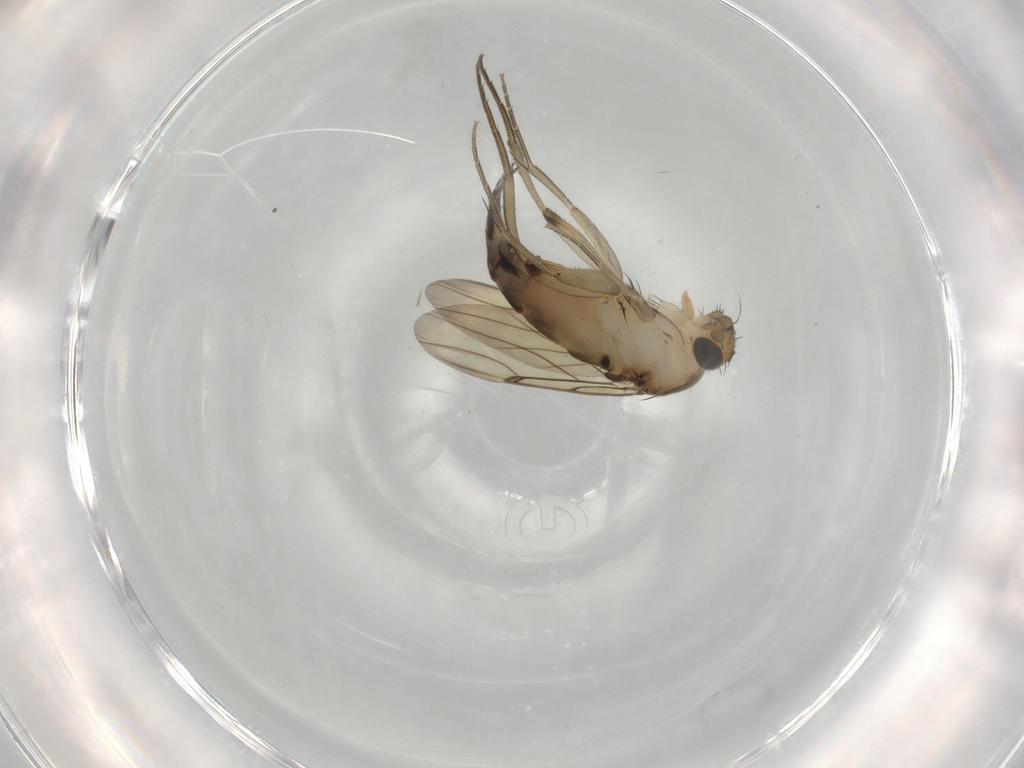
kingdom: Animalia
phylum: Arthropoda
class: Insecta
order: Diptera
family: Phoridae
